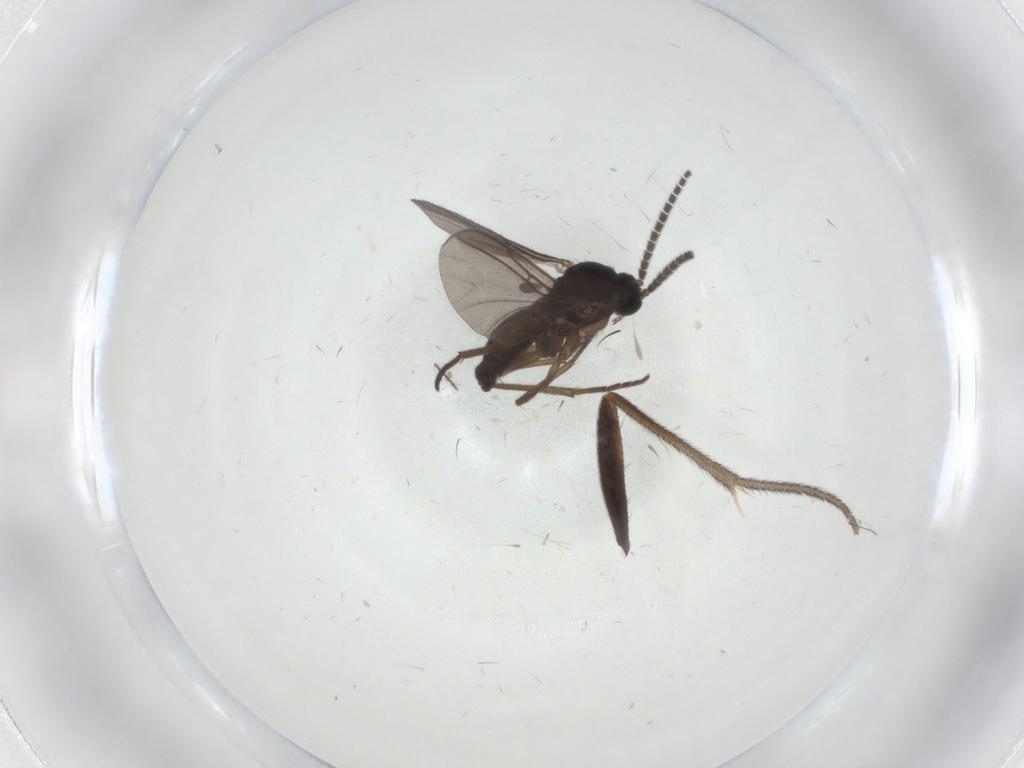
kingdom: Animalia
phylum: Arthropoda
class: Insecta
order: Diptera
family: Sciaridae
